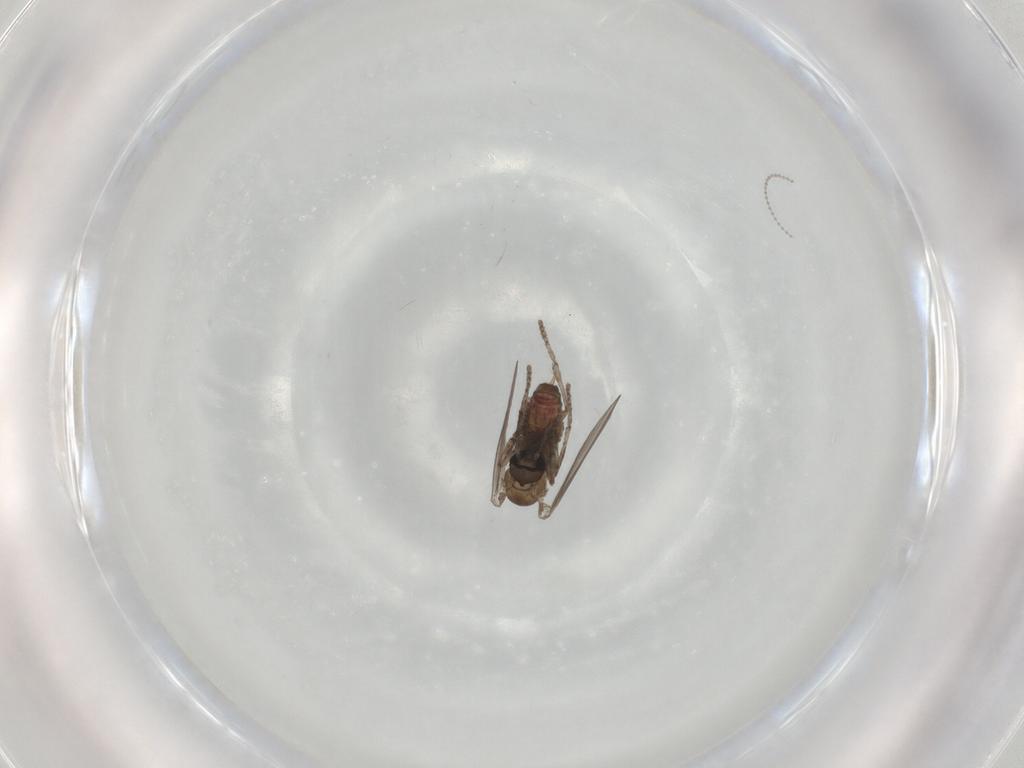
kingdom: Animalia
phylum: Arthropoda
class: Insecta
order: Diptera
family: Psychodidae
